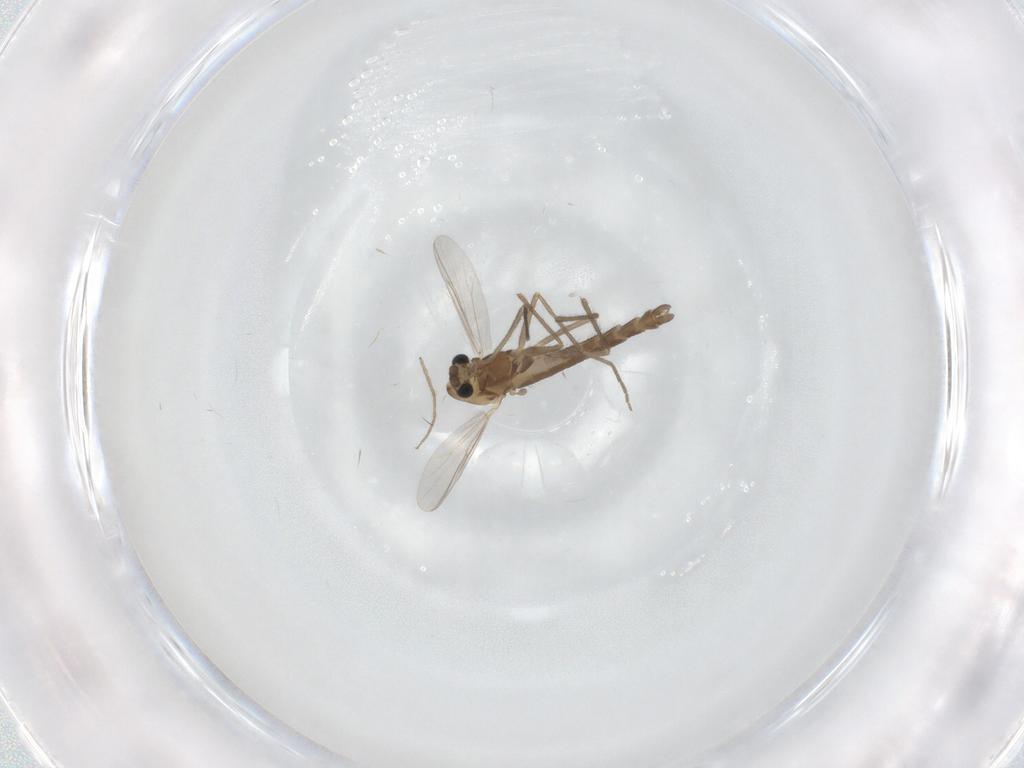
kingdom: Animalia
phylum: Arthropoda
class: Insecta
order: Diptera
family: Chironomidae
